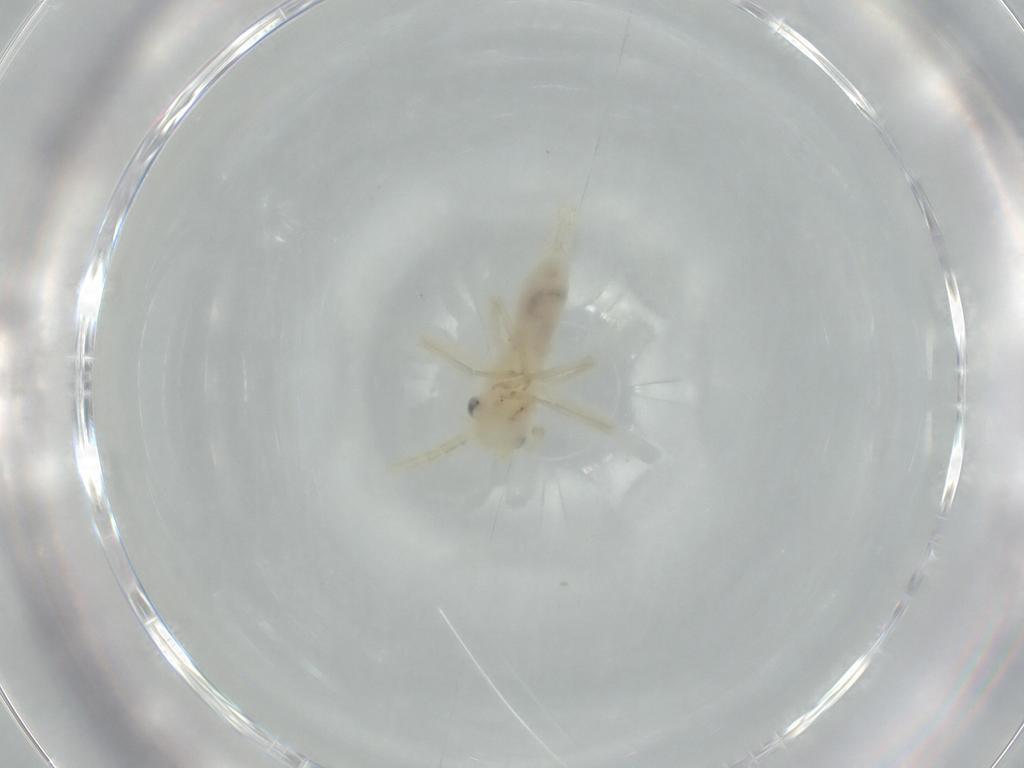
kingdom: Animalia
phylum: Arthropoda
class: Insecta
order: Orthoptera
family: Trigonidiidae
